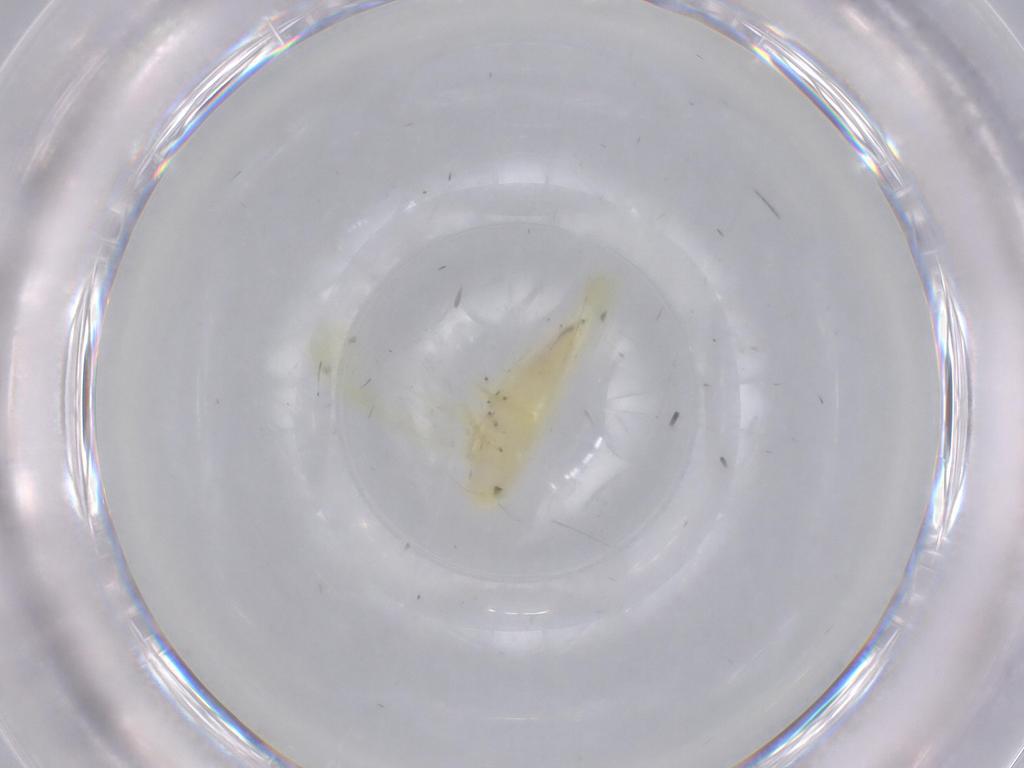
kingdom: Animalia
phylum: Arthropoda
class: Insecta
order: Hemiptera
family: Cicadellidae
